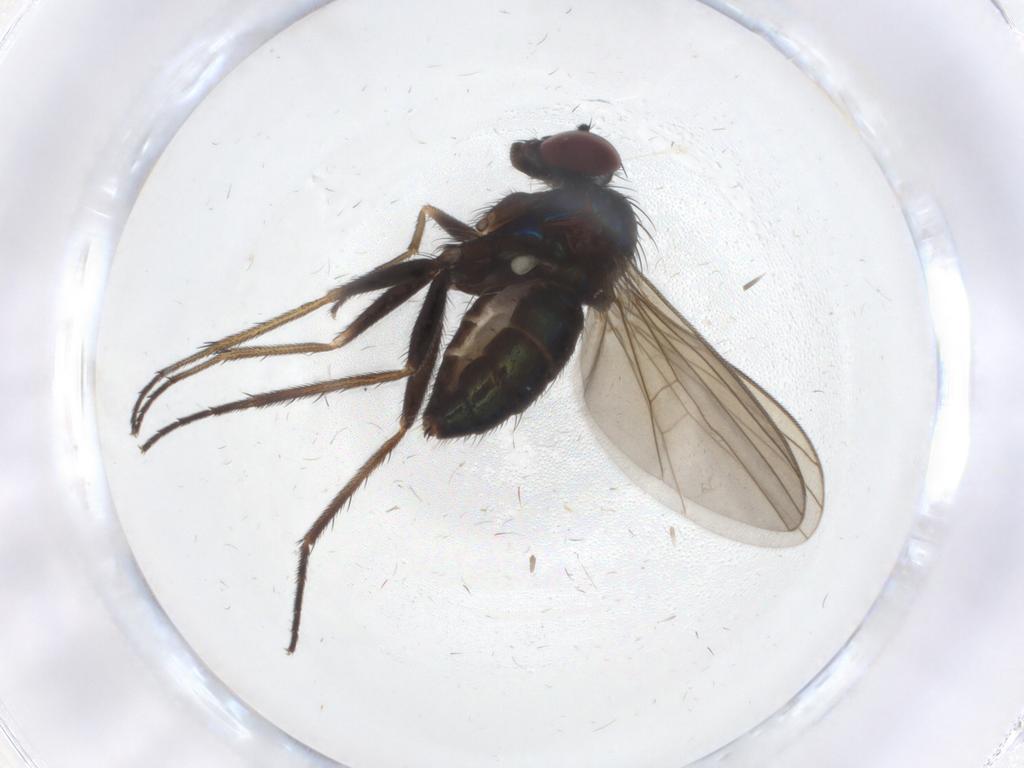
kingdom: Animalia
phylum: Arthropoda
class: Insecta
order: Diptera
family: Dolichopodidae
